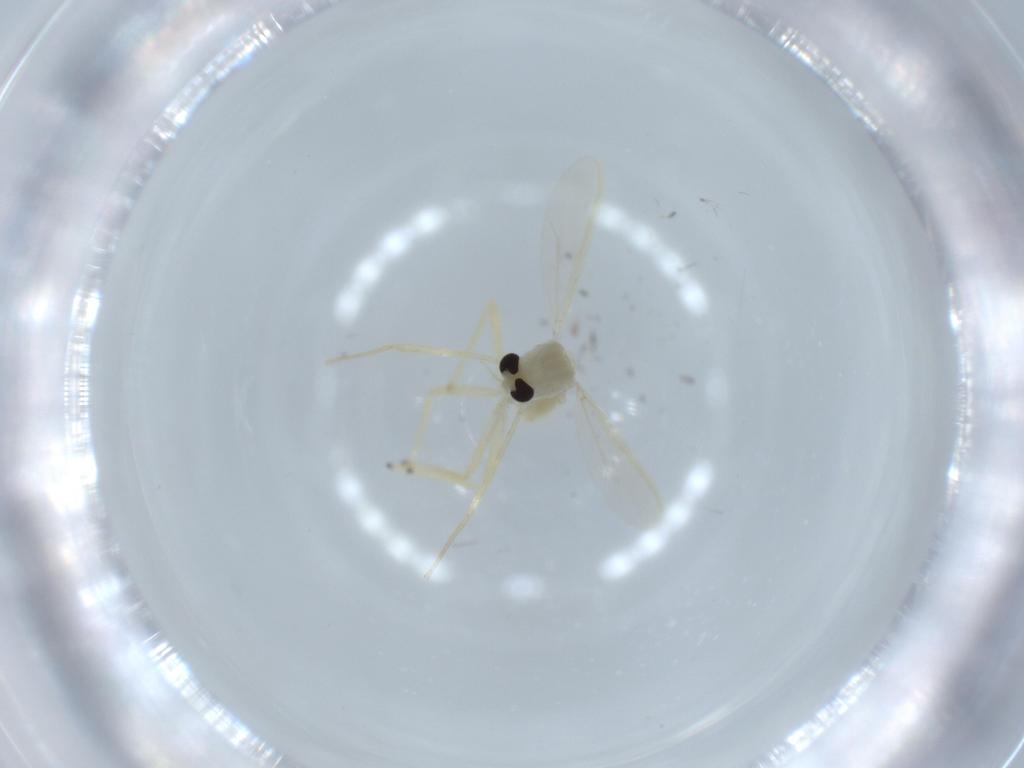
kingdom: Animalia
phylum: Arthropoda
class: Insecta
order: Diptera
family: Chironomidae
